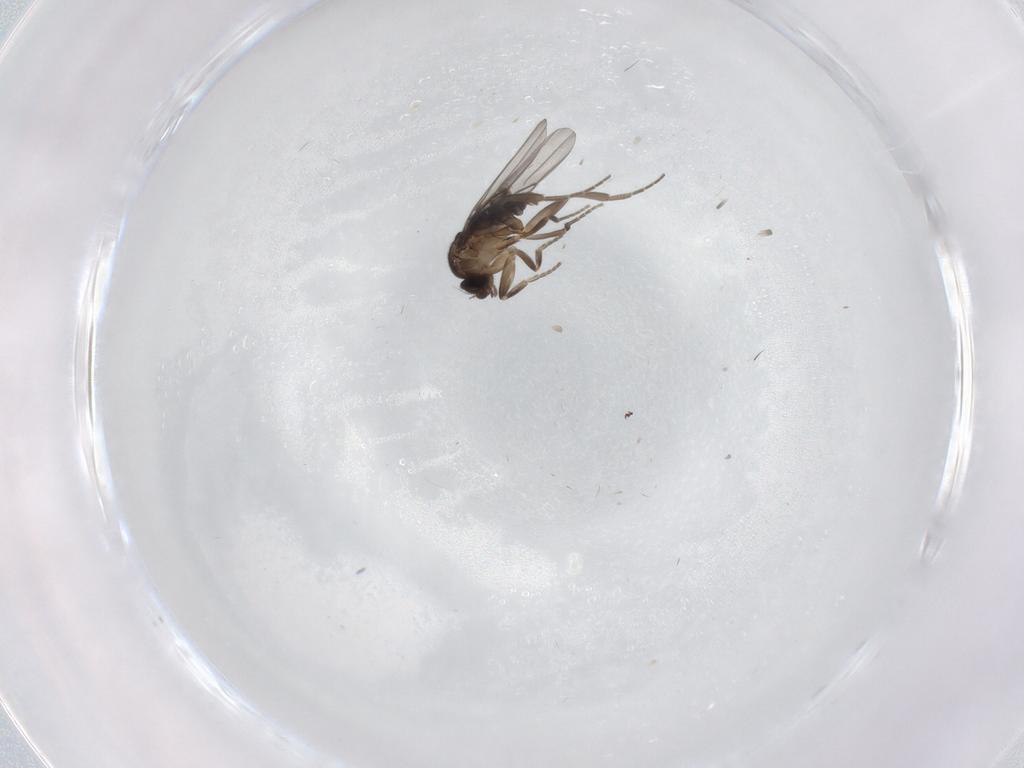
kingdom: Animalia
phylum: Arthropoda
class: Insecta
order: Diptera
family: Phoridae
